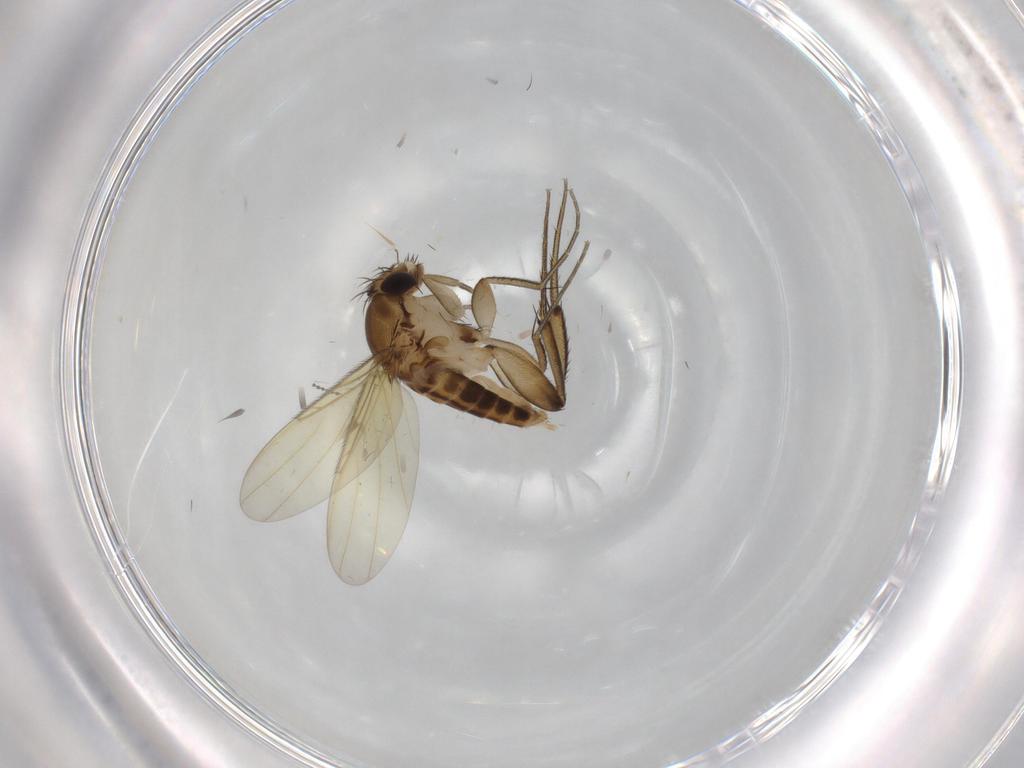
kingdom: Animalia
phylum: Arthropoda
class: Insecta
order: Diptera
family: Phoridae
